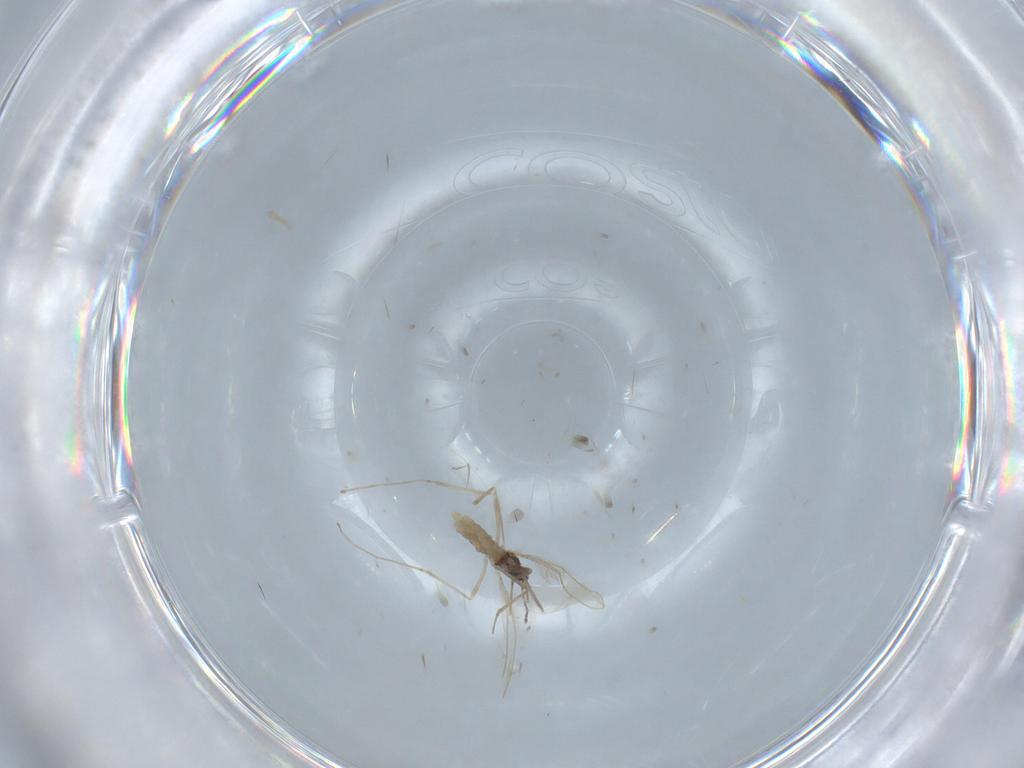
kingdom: Animalia
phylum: Arthropoda
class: Insecta
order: Diptera
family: Cecidomyiidae
